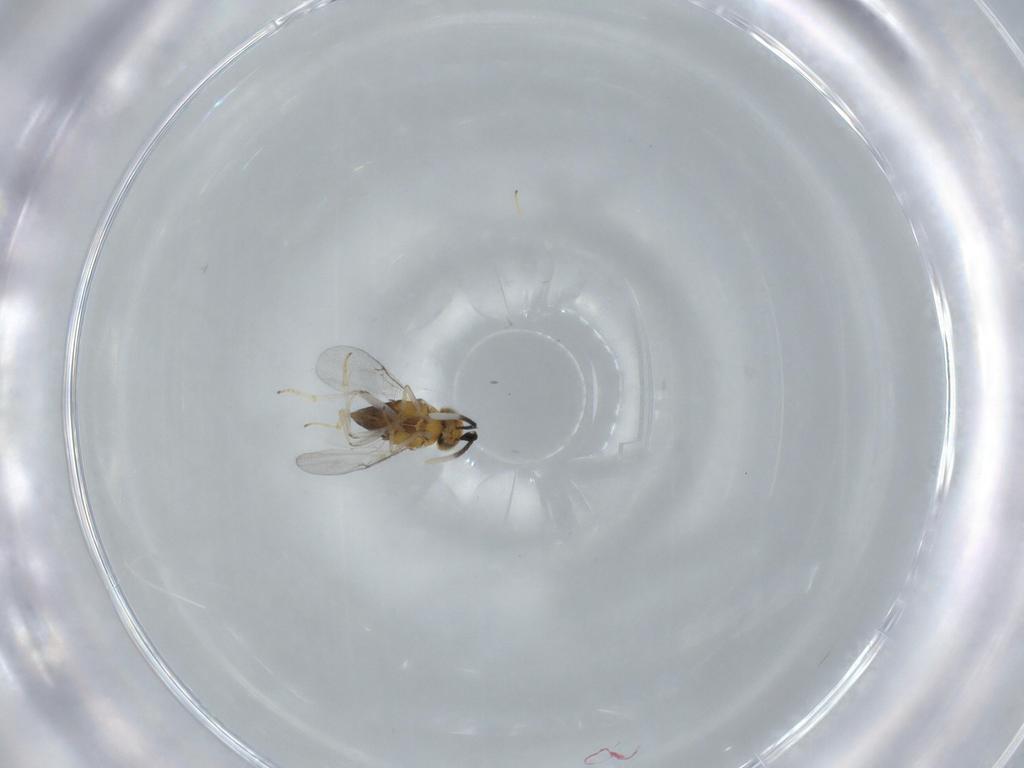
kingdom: Animalia
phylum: Arthropoda
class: Insecta
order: Hymenoptera
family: Encyrtidae
